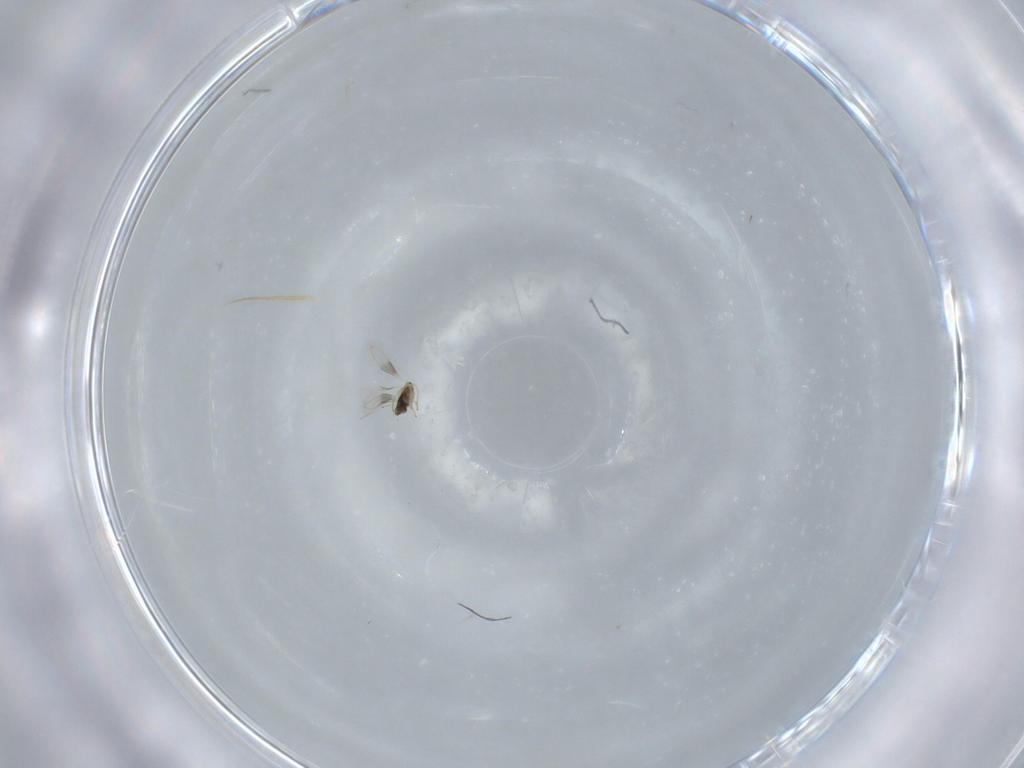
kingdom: Animalia
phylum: Arthropoda
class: Insecta
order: Hymenoptera
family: Aphelinidae
